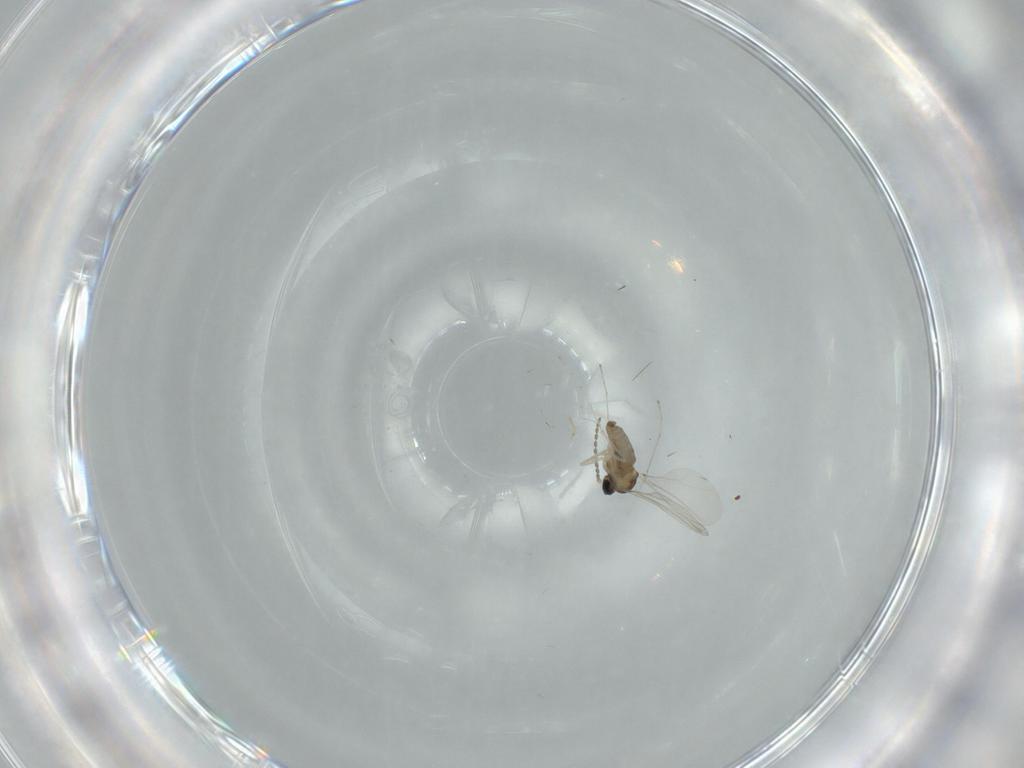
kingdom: Animalia
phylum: Arthropoda
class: Insecta
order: Diptera
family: Cecidomyiidae
